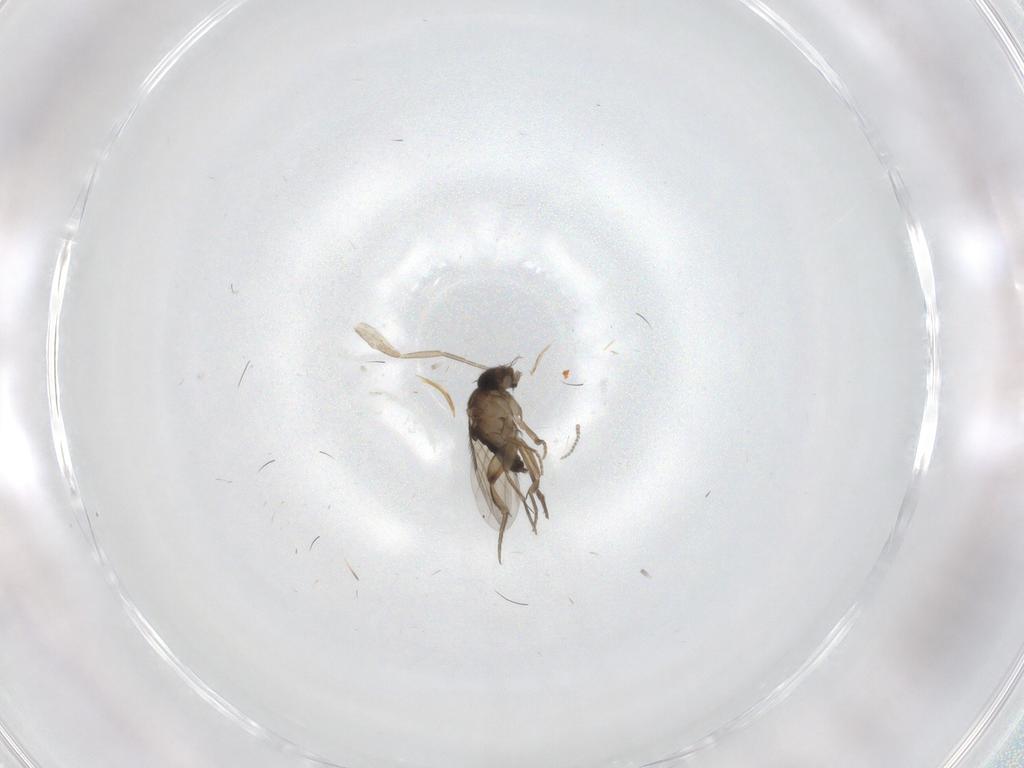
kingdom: Animalia
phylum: Arthropoda
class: Insecta
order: Diptera
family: Phoridae
